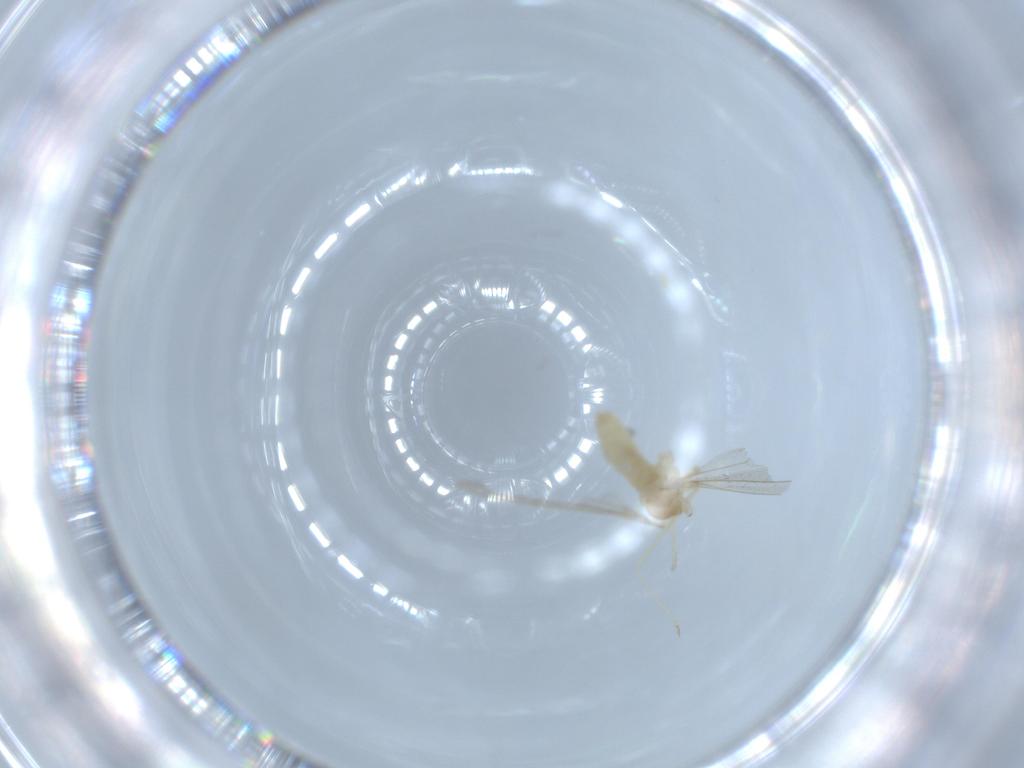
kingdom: Animalia
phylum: Arthropoda
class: Insecta
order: Diptera
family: Cecidomyiidae
